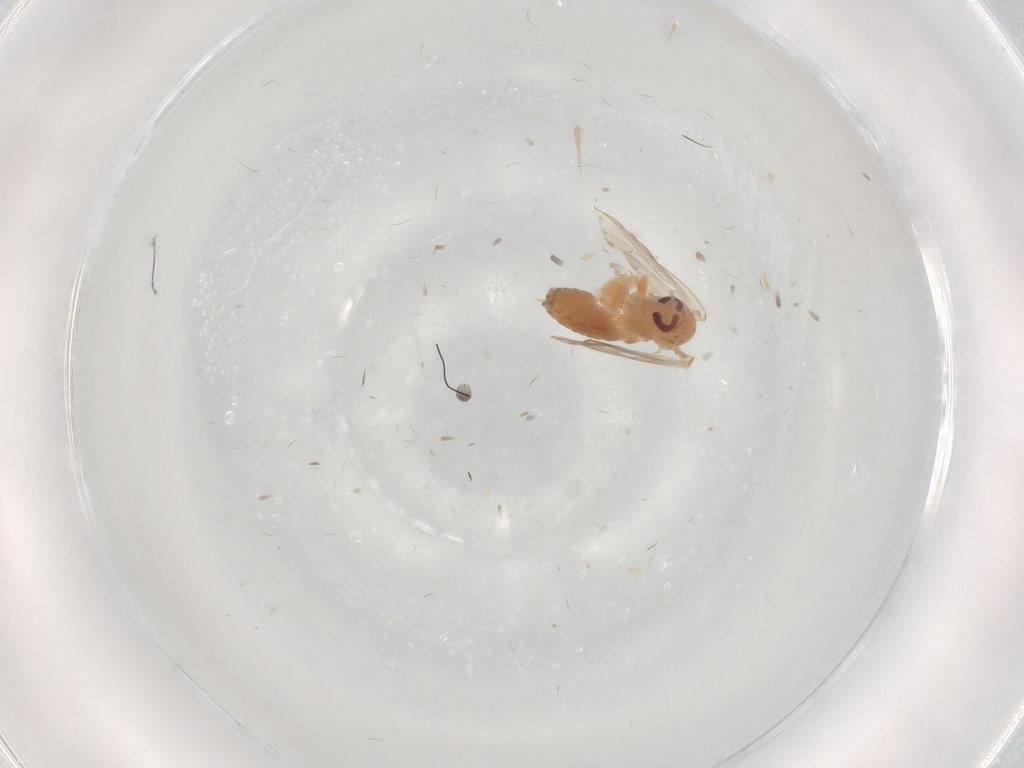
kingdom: Animalia
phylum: Arthropoda
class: Insecta
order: Diptera
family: Psychodidae
